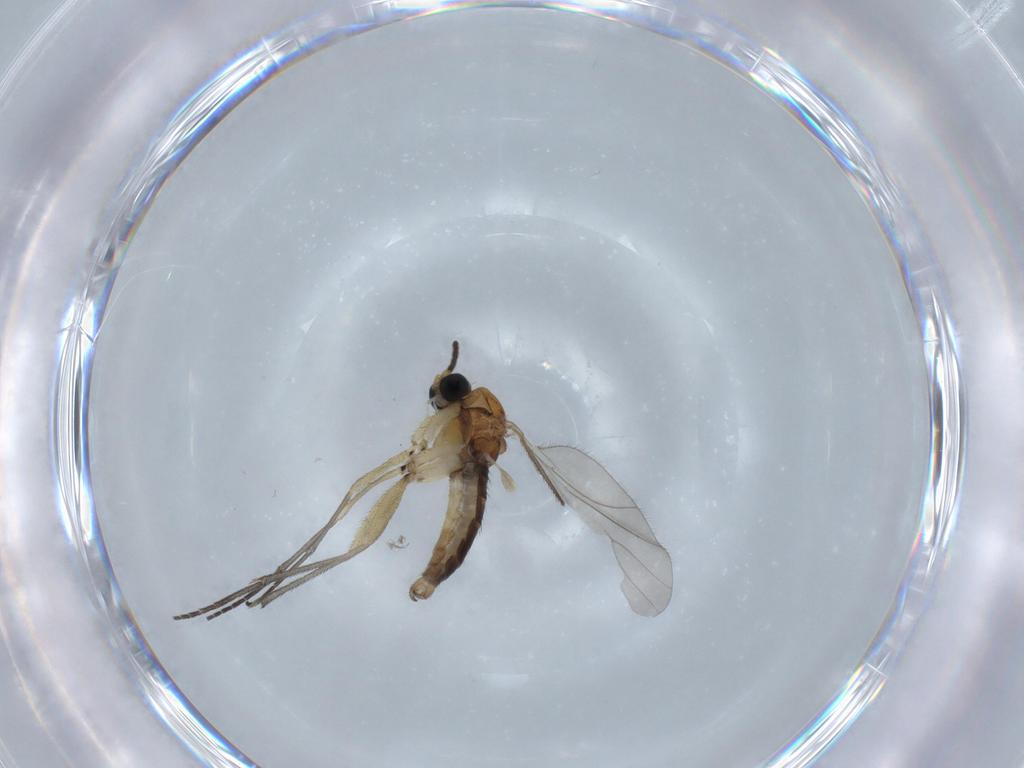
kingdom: Animalia
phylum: Arthropoda
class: Insecta
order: Diptera
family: Sciaridae
